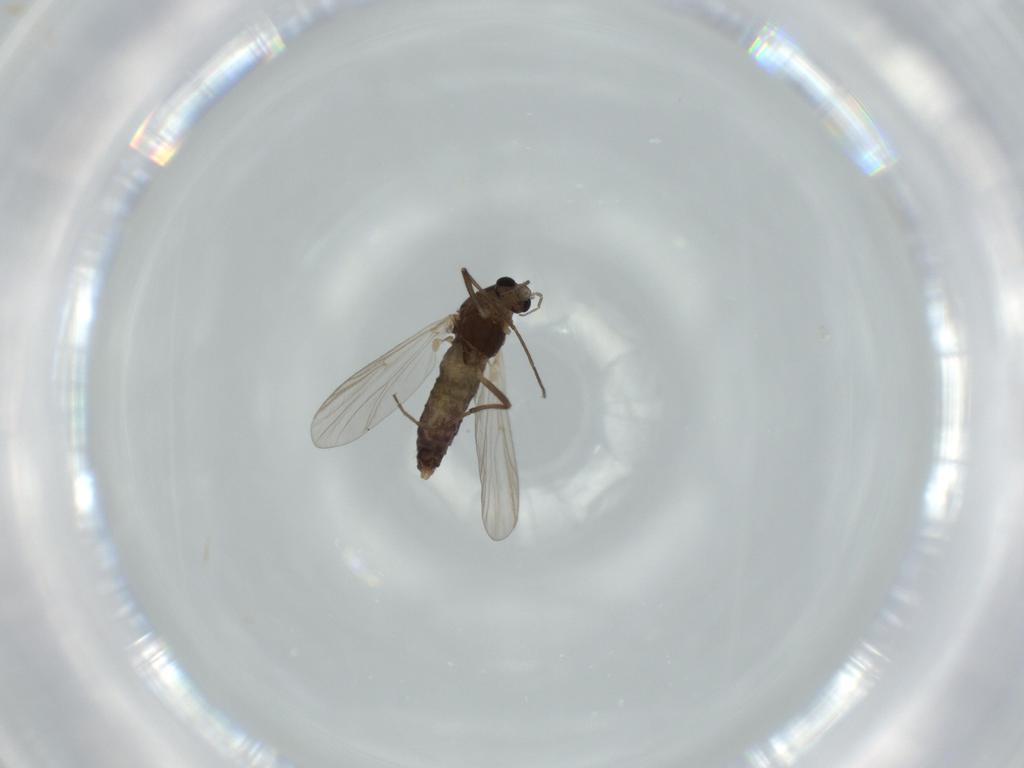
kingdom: Animalia
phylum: Arthropoda
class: Insecta
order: Diptera
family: Chironomidae
